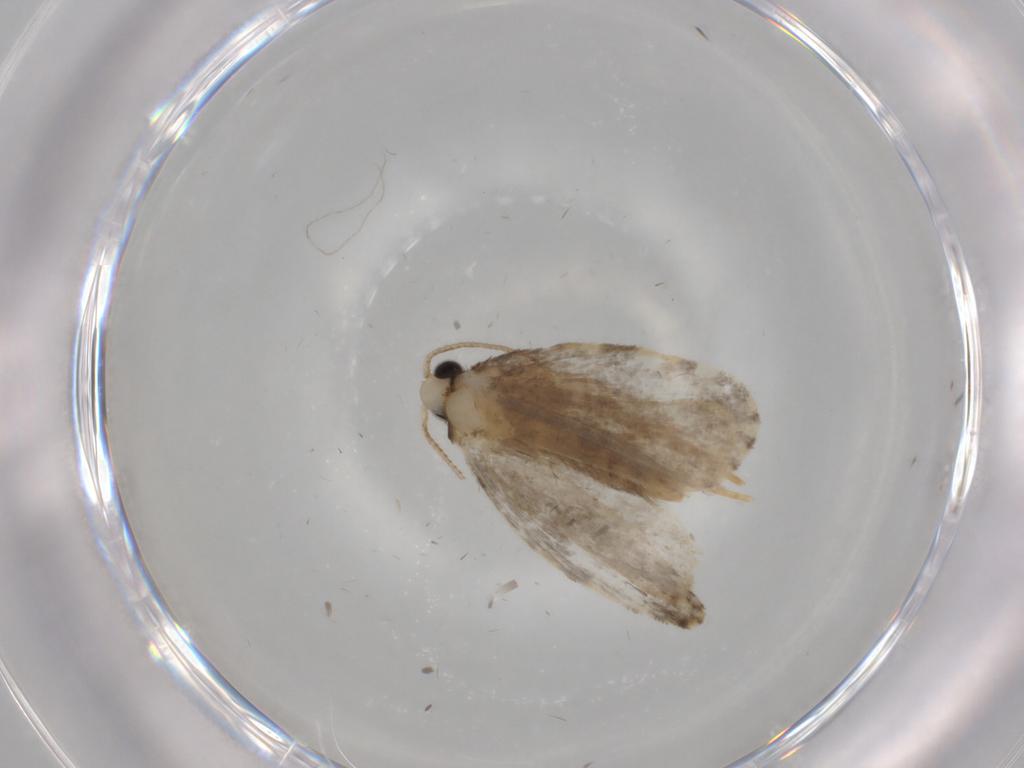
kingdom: Animalia
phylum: Arthropoda
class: Insecta
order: Lepidoptera
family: Psychidae
